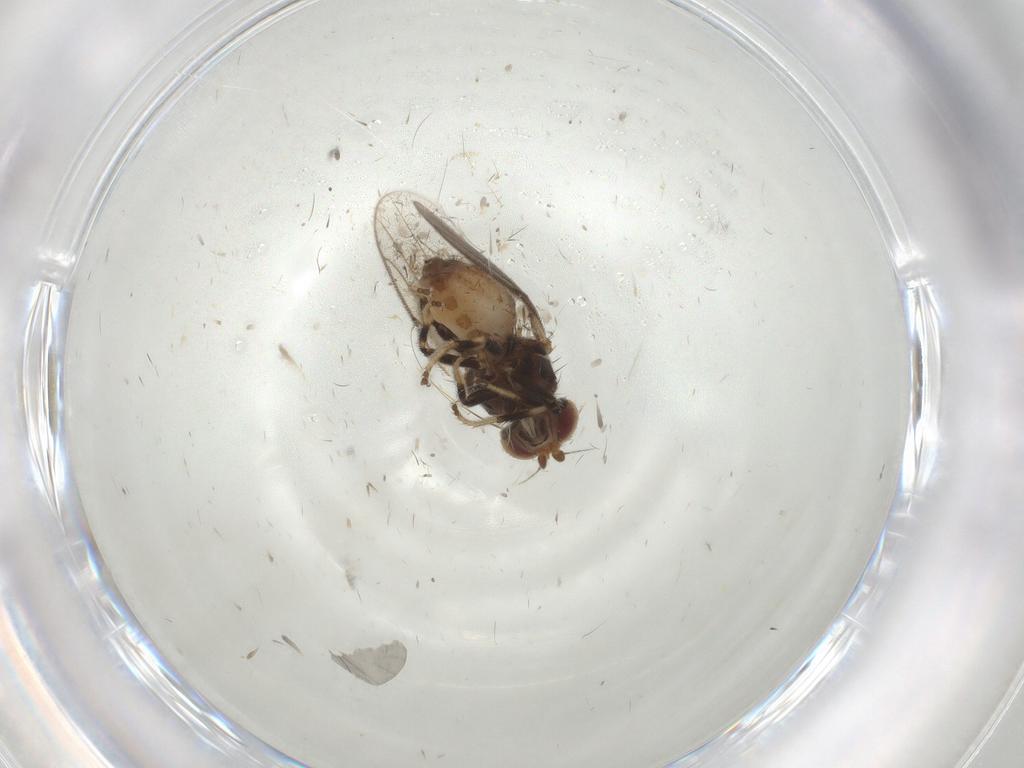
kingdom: Animalia
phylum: Arthropoda
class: Insecta
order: Diptera
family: Chloropidae
